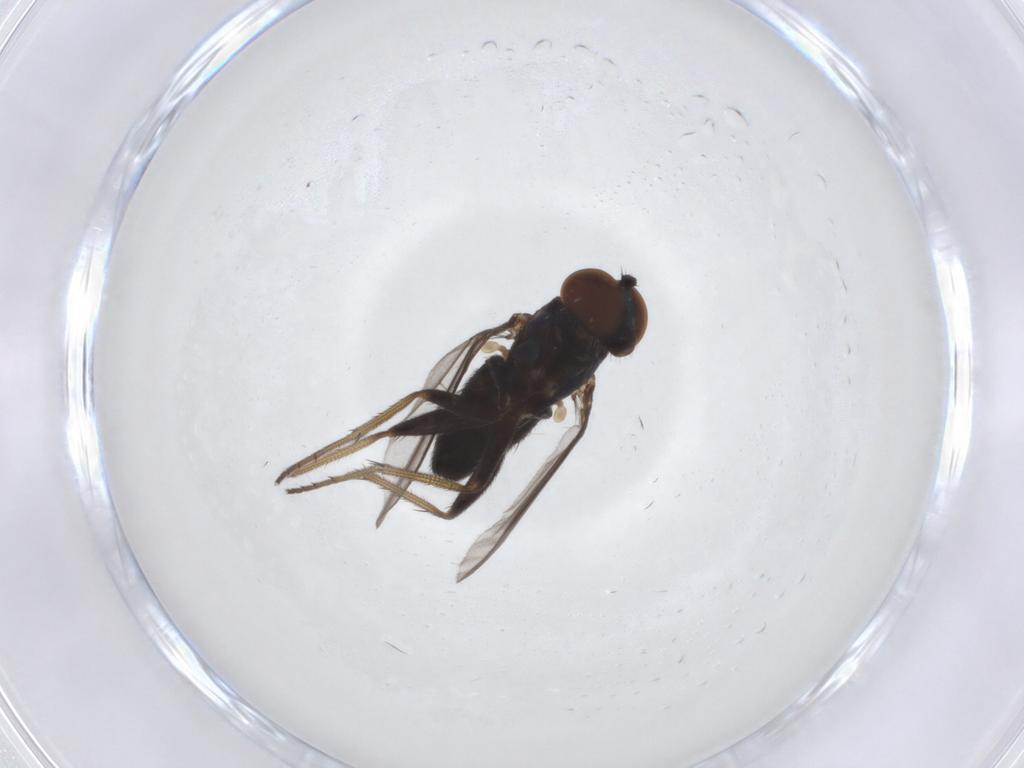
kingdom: Animalia
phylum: Arthropoda
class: Insecta
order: Diptera
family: Dolichopodidae
